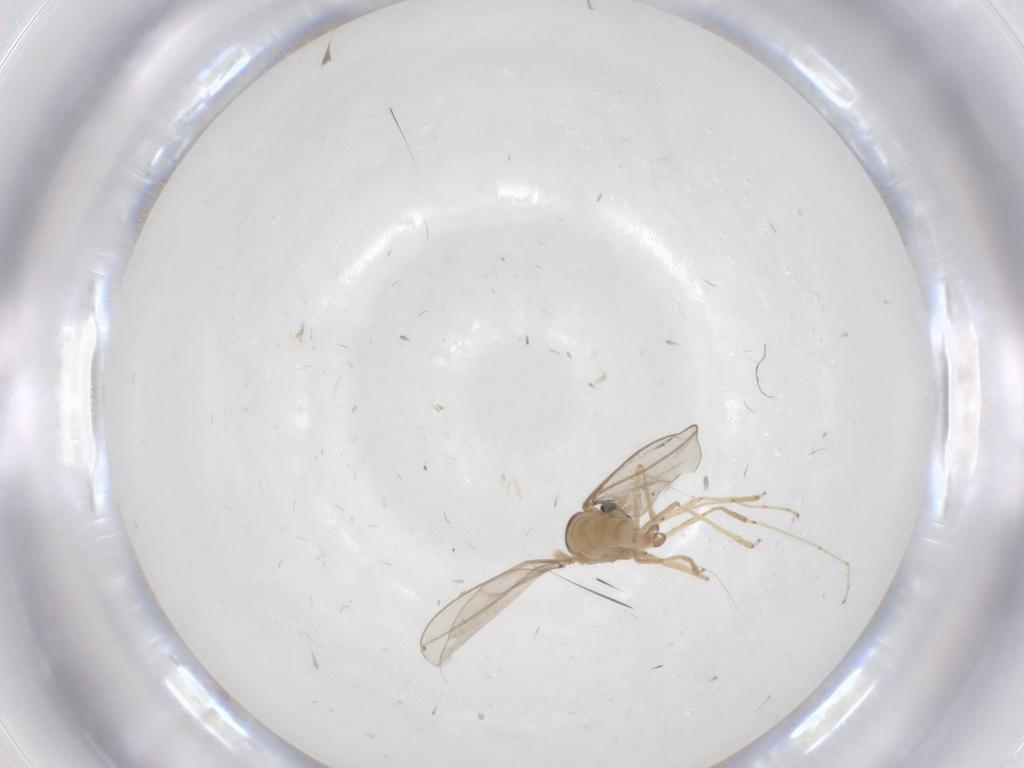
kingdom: Animalia
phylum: Arthropoda
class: Insecta
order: Diptera
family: Cecidomyiidae
